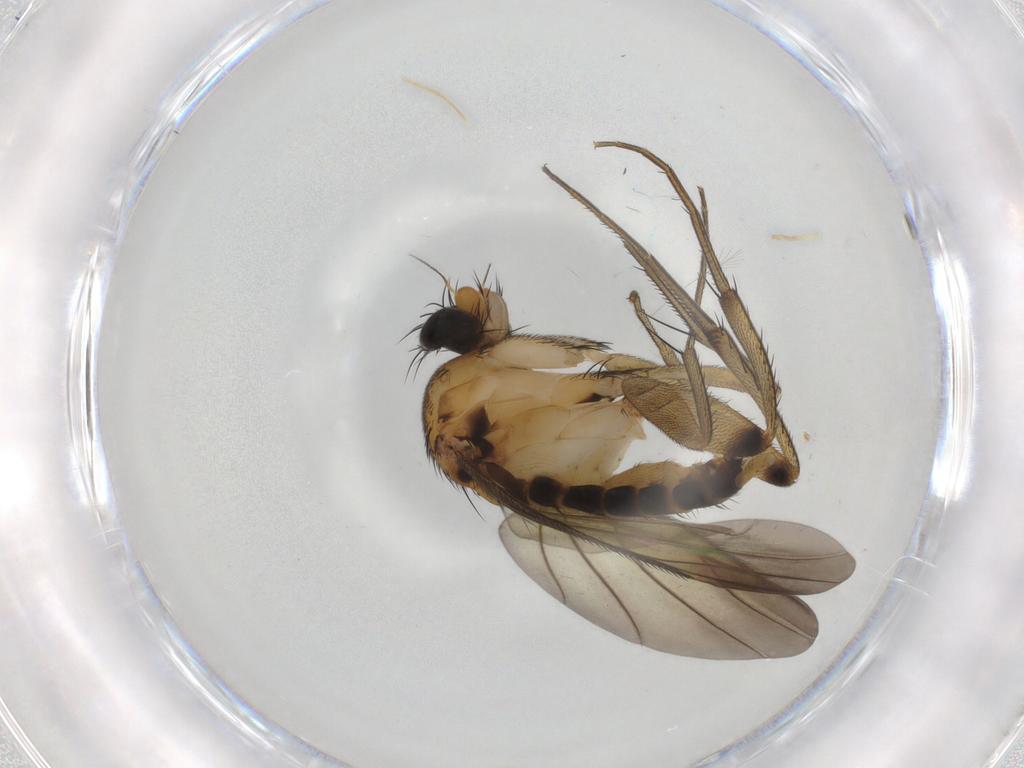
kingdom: Animalia
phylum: Arthropoda
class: Insecta
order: Diptera
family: Phoridae
